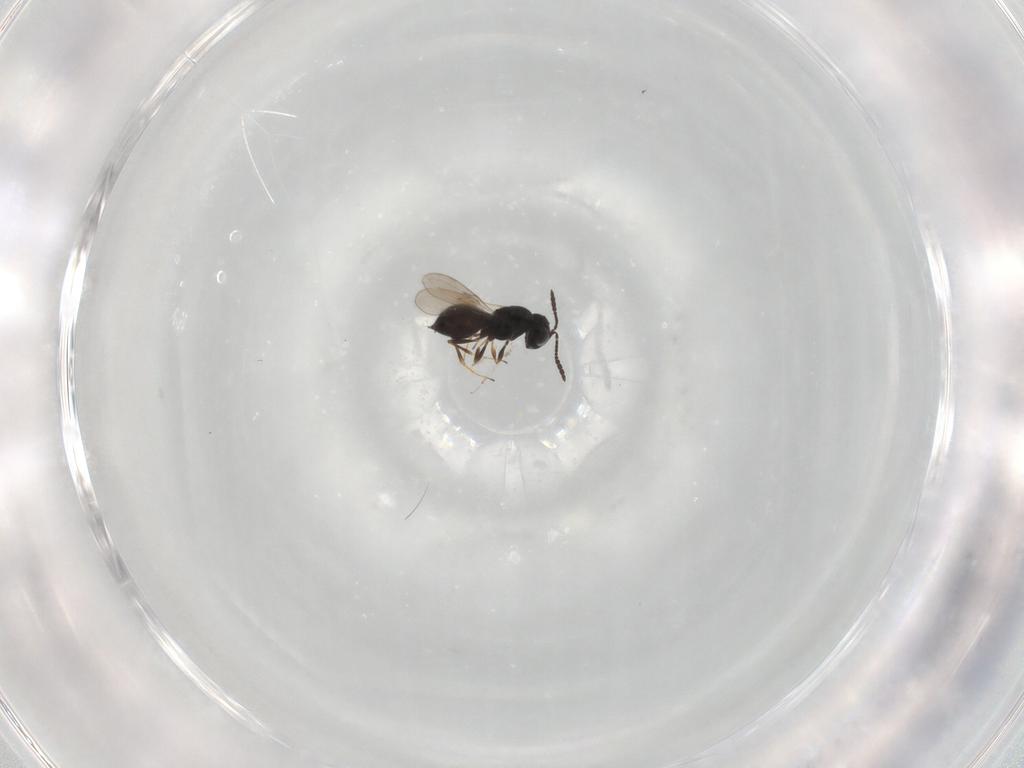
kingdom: Animalia
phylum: Arthropoda
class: Insecta
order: Hymenoptera
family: Scelionidae
